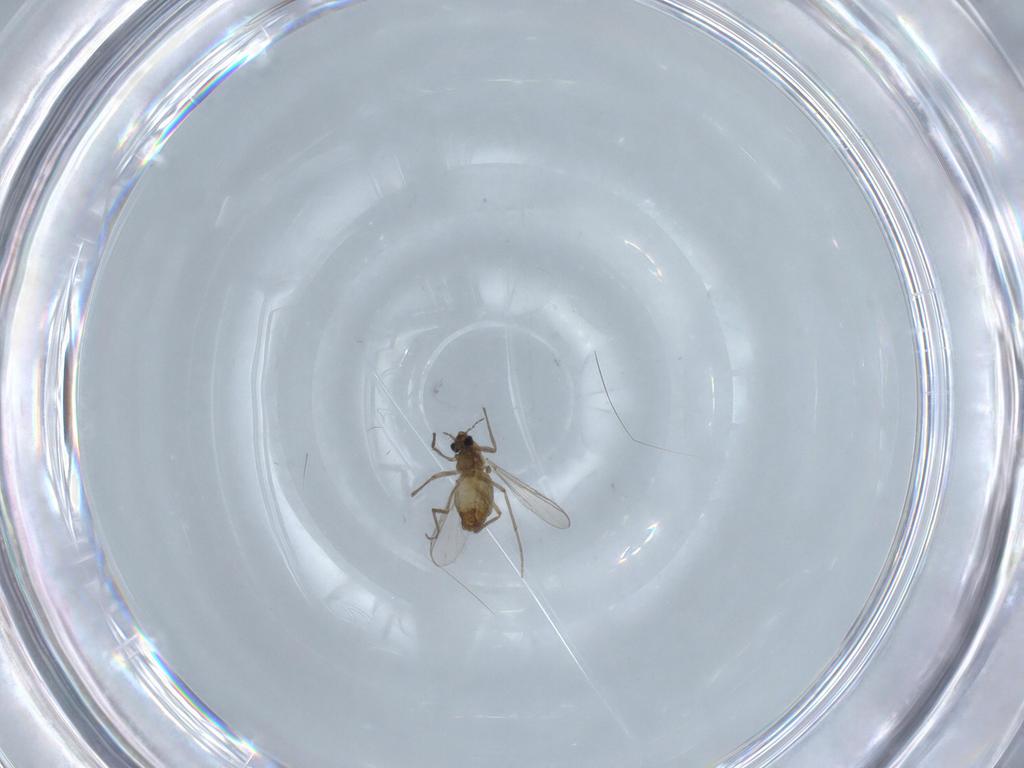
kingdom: Animalia
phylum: Arthropoda
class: Insecta
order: Diptera
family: Chironomidae
